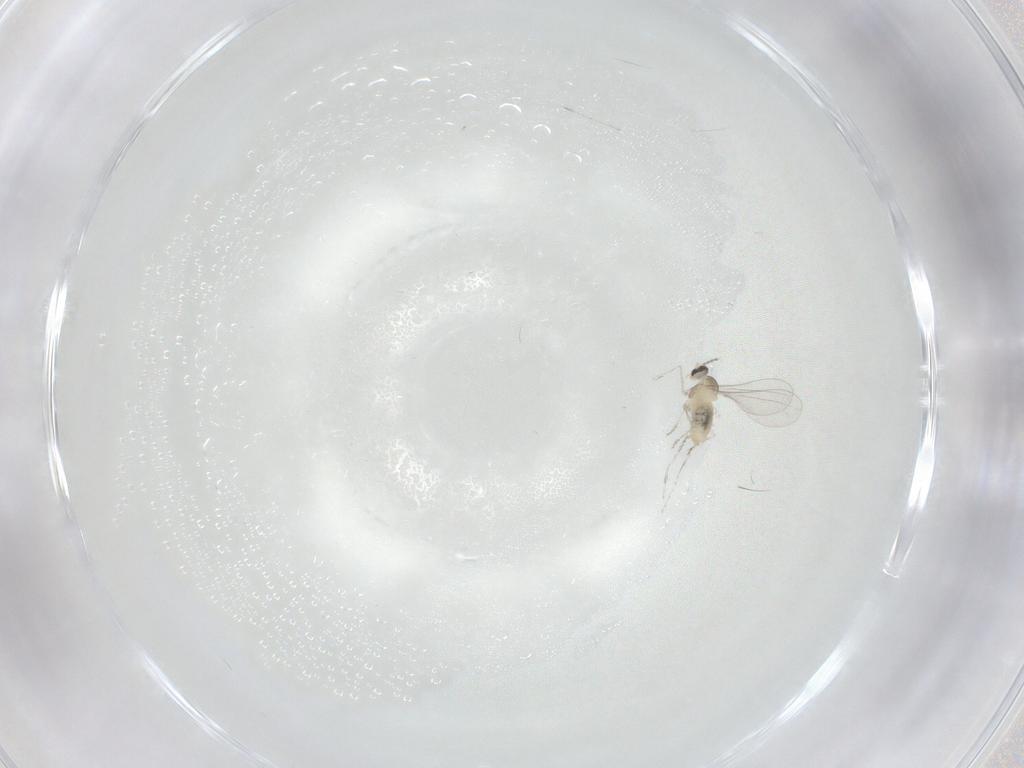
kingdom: Animalia
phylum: Arthropoda
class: Insecta
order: Diptera
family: Cecidomyiidae
